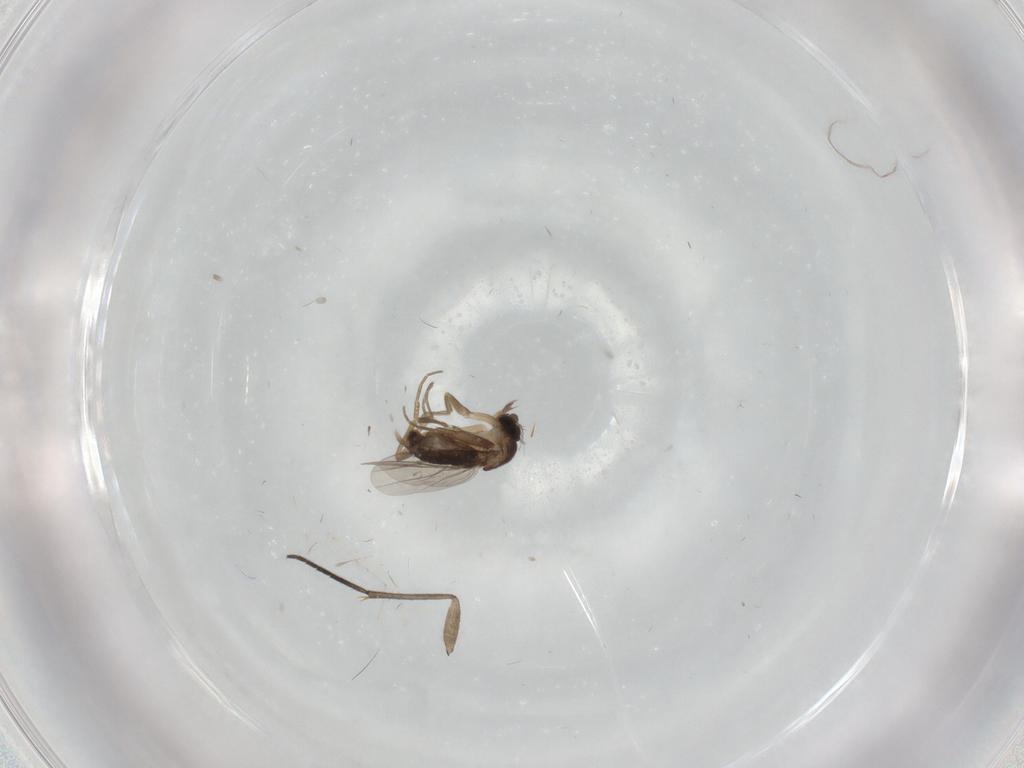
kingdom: Animalia
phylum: Arthropoda
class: Insecta
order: Diptera
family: Phoridae
